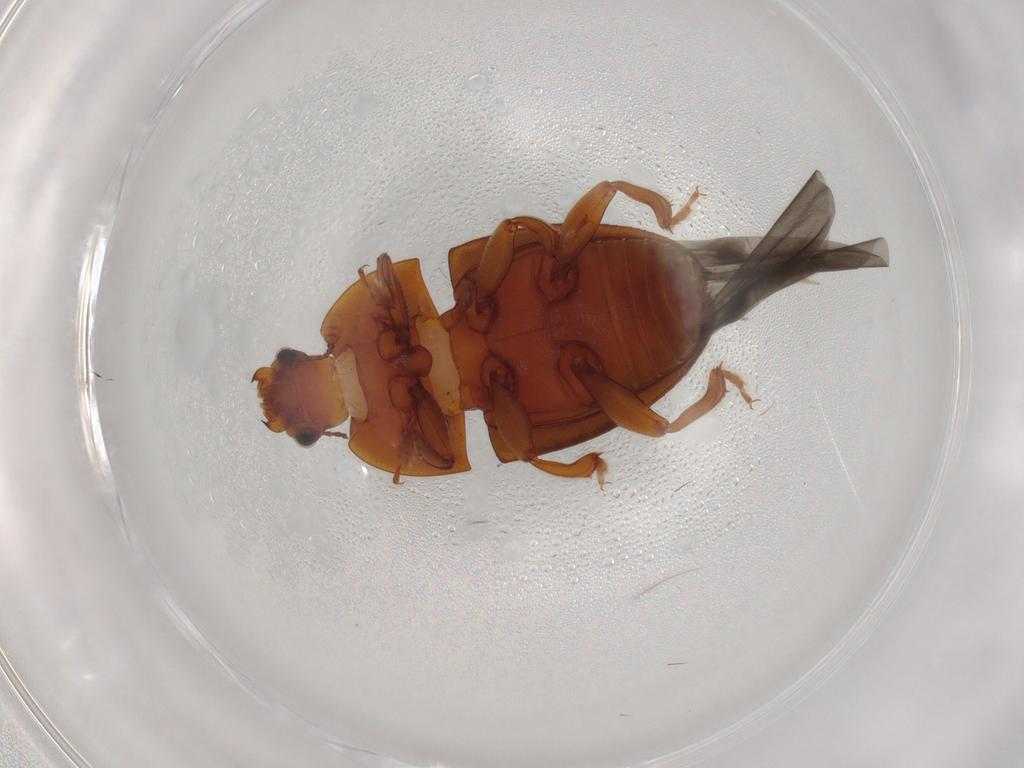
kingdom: Animalia
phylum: Arthropoda
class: Insecta
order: Coleoptera
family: Nitidulidae
